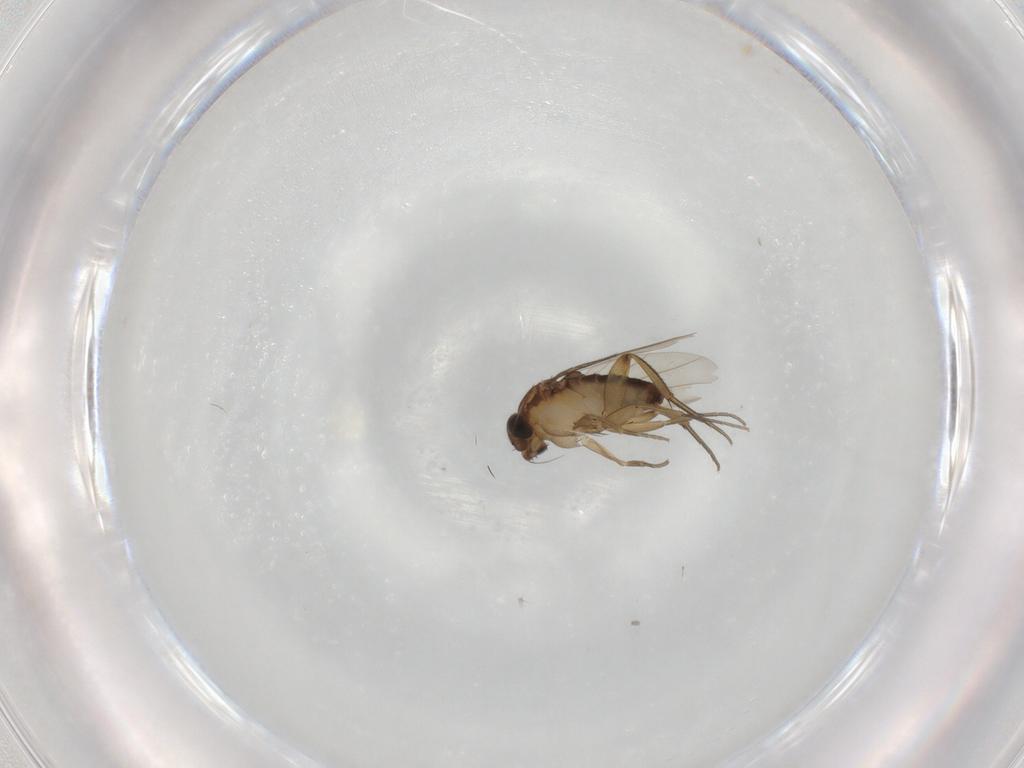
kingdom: Animalia
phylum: Arthropoda
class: Insecta
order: Diptera
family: Phoridae
